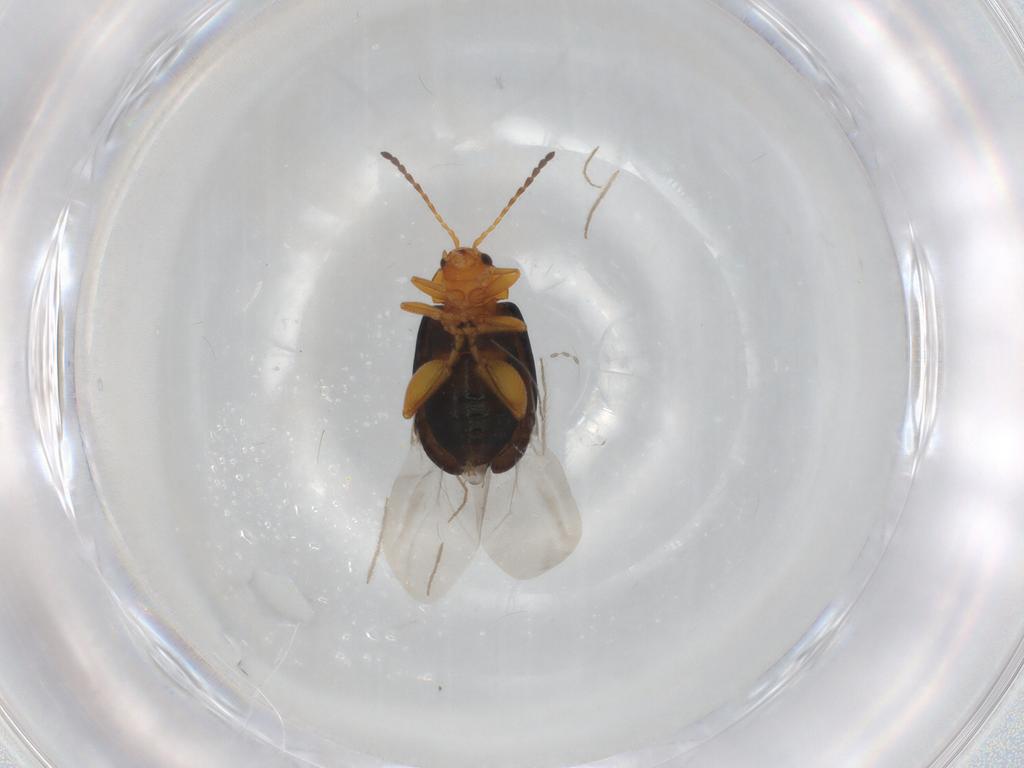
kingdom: Animalia
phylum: Arthropoda
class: Insecta
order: Coleoptera
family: Chrysomelidae
